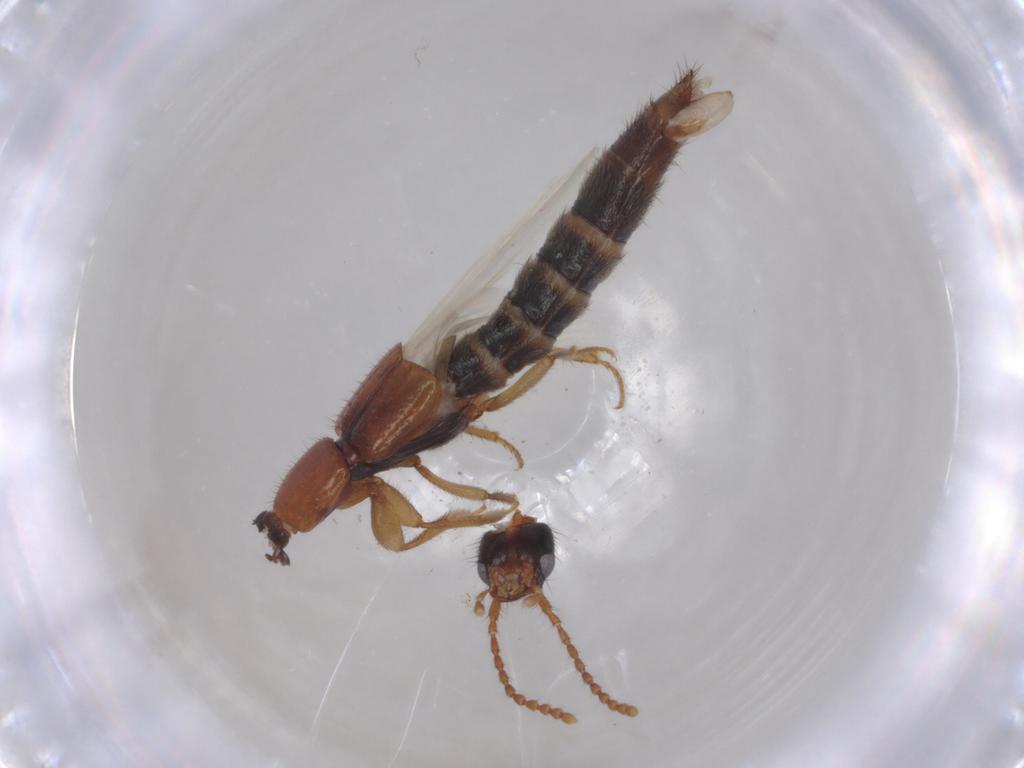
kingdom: Animalia
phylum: Arthropoda
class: Insecta
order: Coleoptera
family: Staphylinidae
